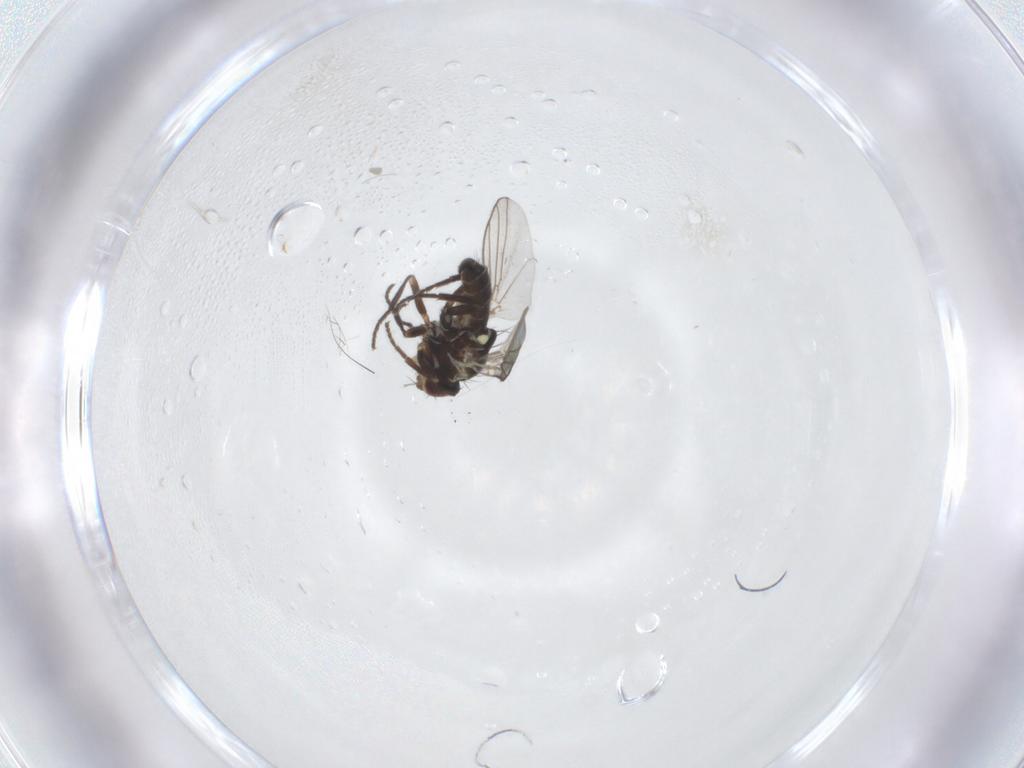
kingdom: Animalia
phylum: Arthropoda
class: Insecta
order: Diptera
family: Agromyzidae
